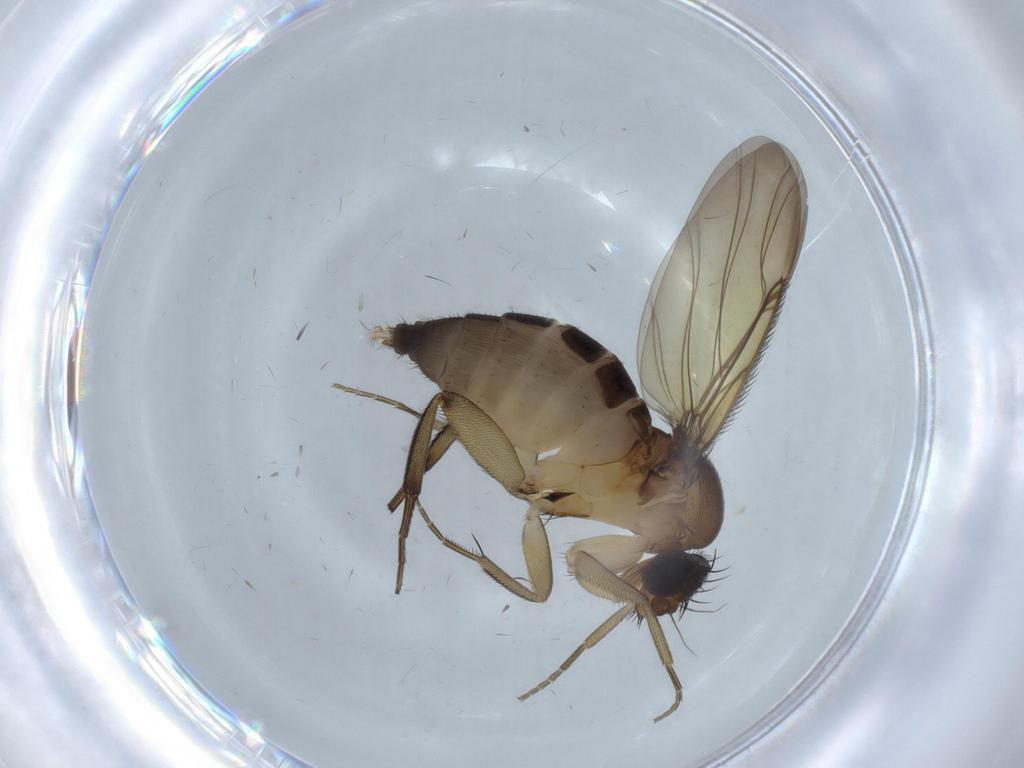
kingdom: Animalia
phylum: Arthropoda
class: Insecta
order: Diptera
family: Phoridae
